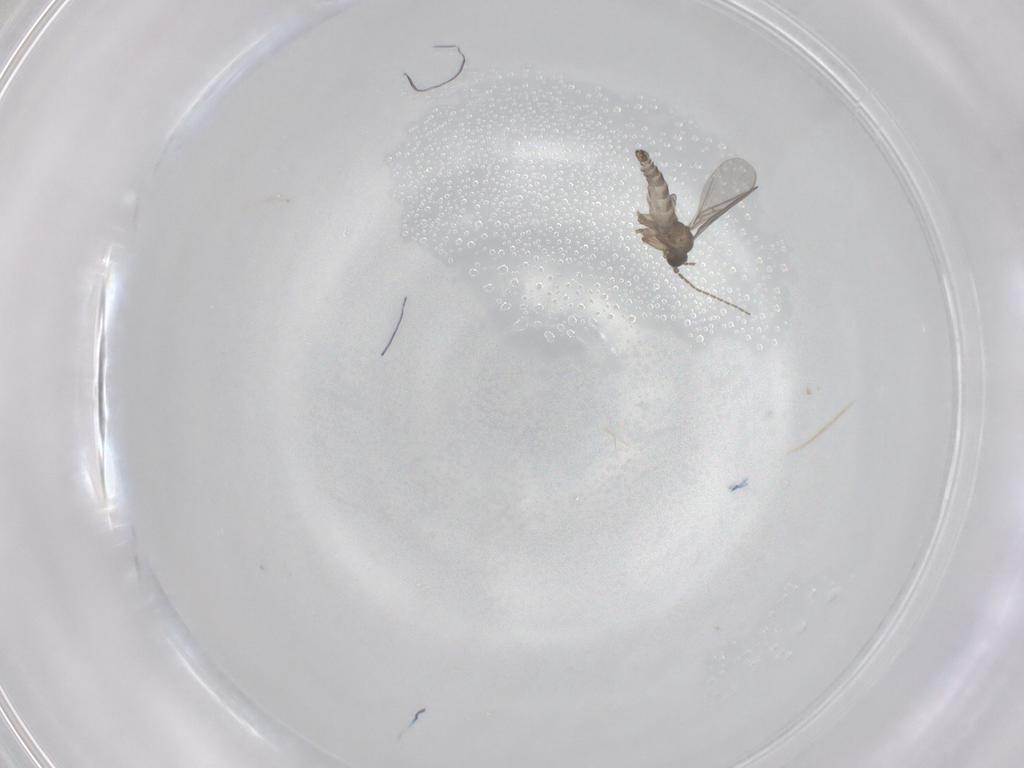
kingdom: Animalia
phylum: Arthropoda
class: Insecta
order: Diptera
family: Sciaridae
